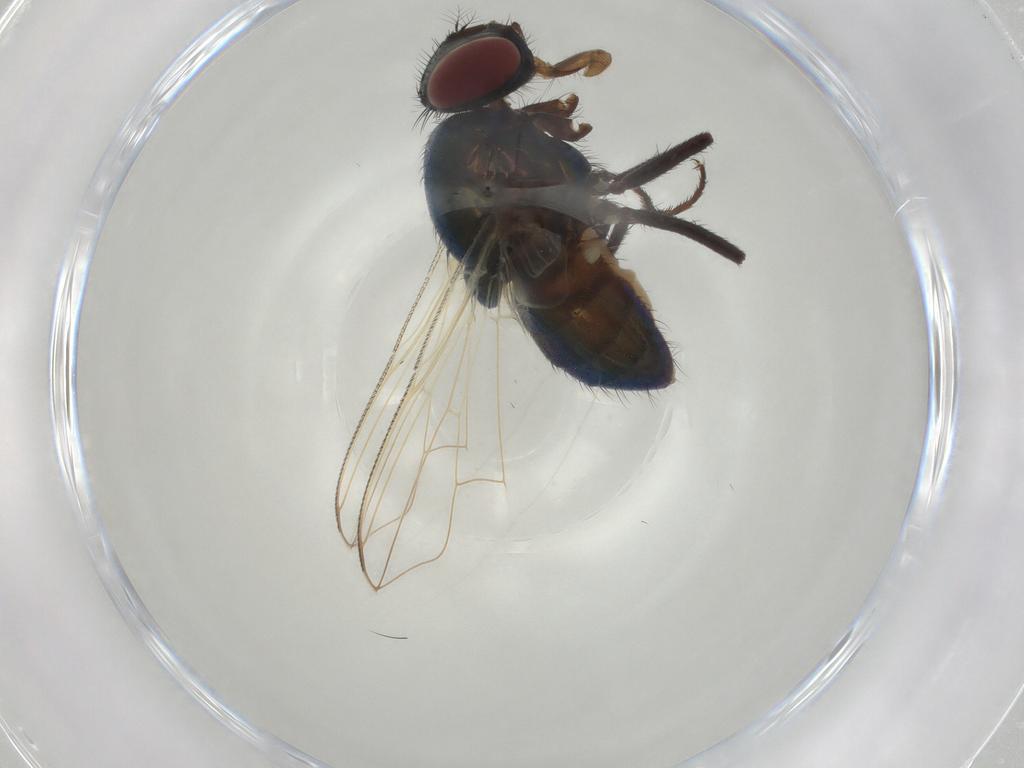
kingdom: Animalia
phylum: Arthropoda
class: Insecta
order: Diptera
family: Muscidae
